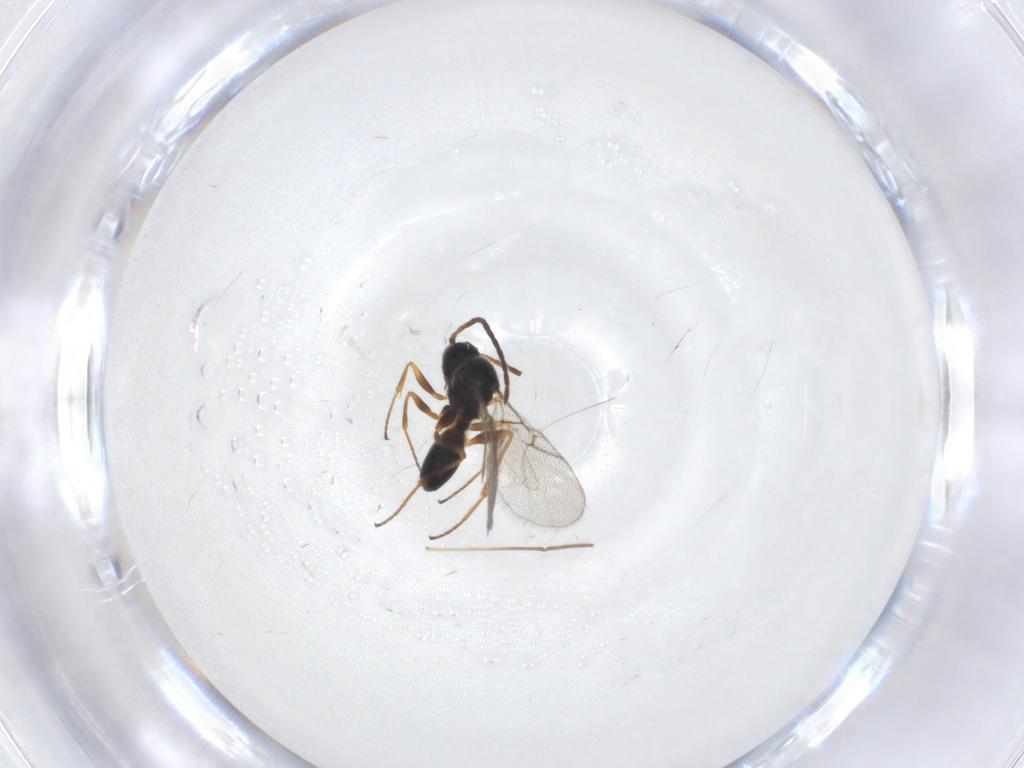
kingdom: Animalia
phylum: Arthropoda
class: Insecta
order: Hymenoptera
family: Figitidae
